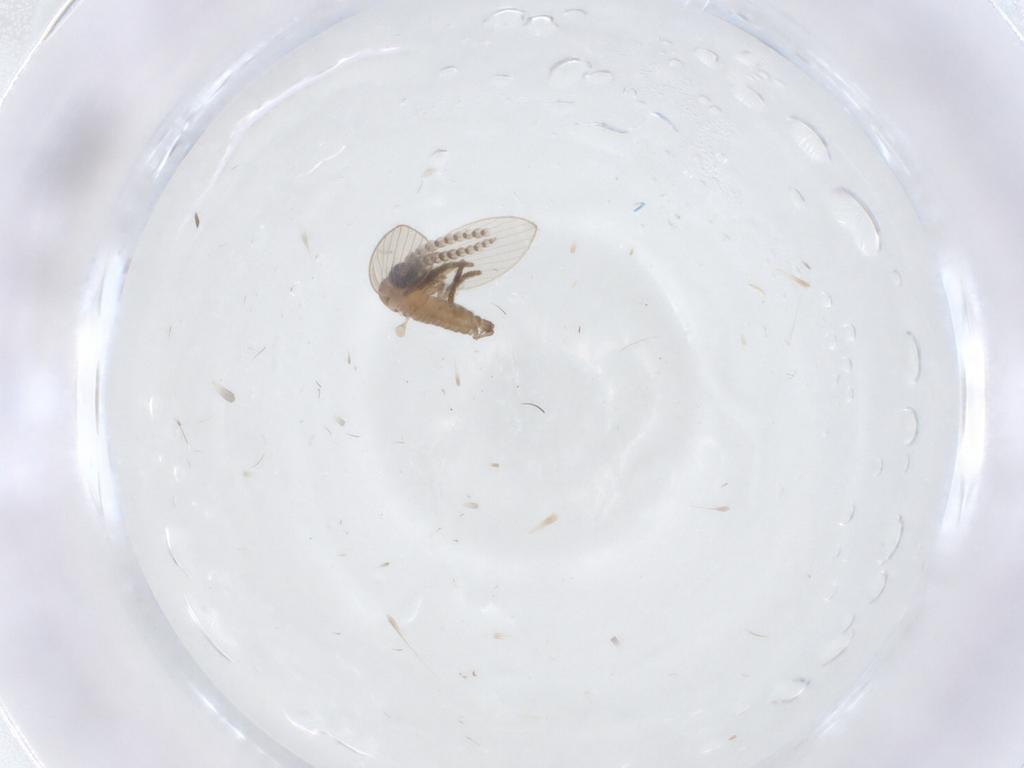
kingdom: Animalia
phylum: Arthropoda
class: Insecta
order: Diptera
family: Psychodidae
